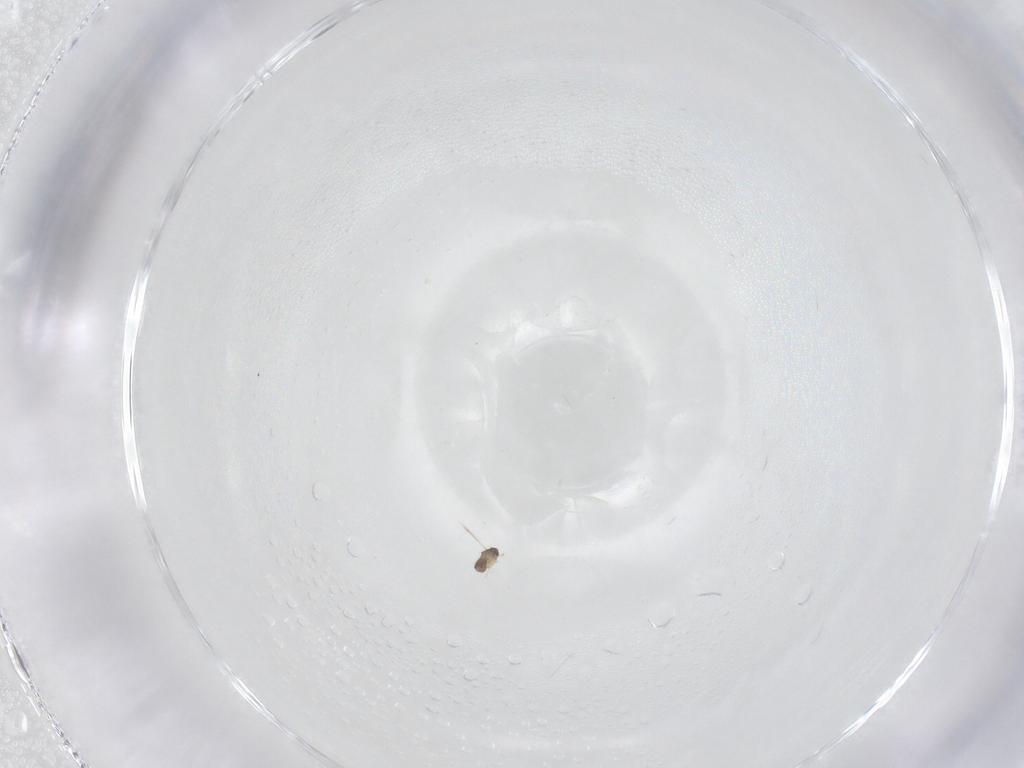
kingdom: Animalia
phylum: Arthropoda
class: Insecta
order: Hymenoptera
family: Mymaridae
